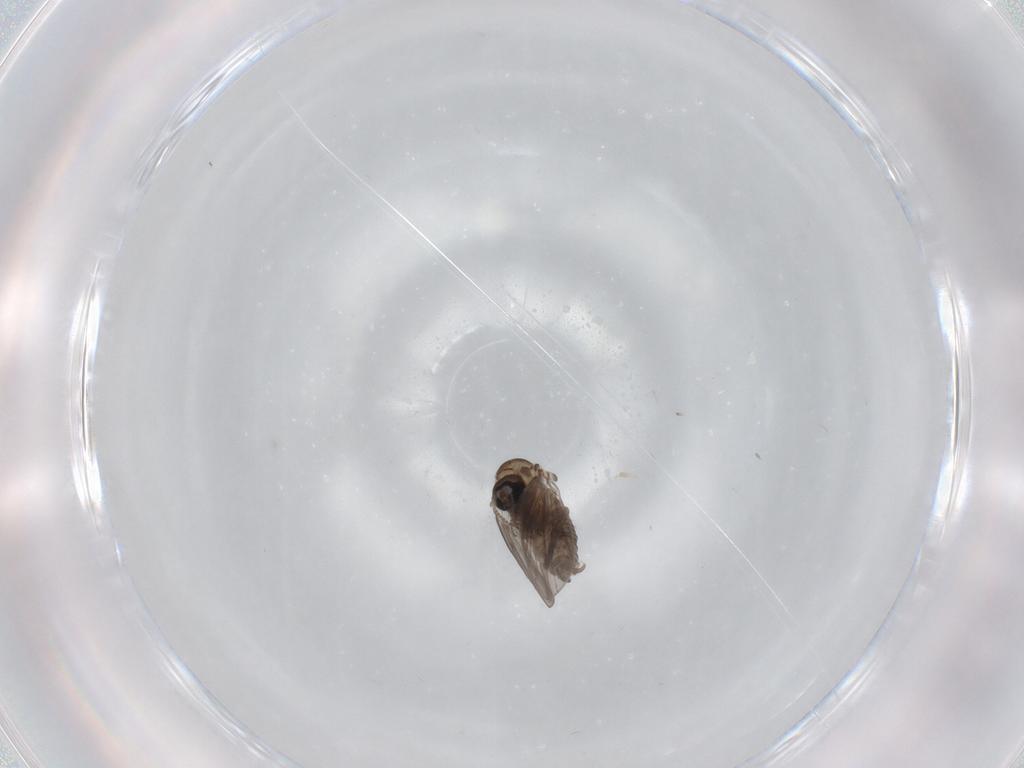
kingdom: Animalia
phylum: Arthropoda
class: Insecta
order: Diptera
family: Psychodidae
